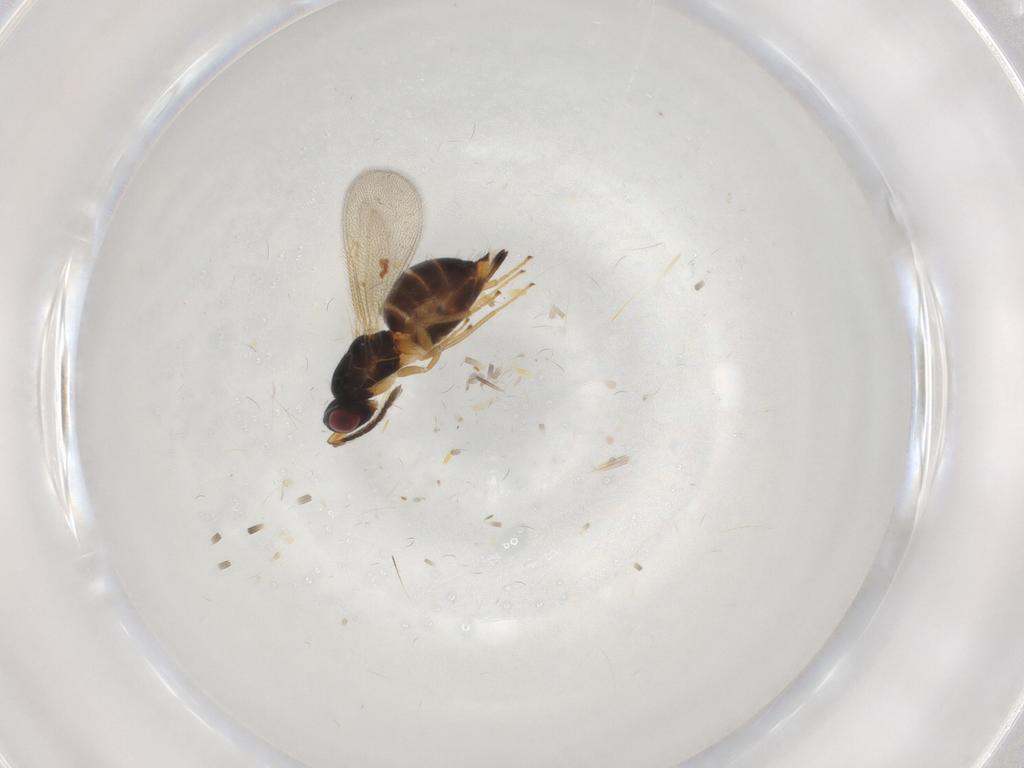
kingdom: Animalia
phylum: Arthropoda
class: Insecta
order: Hymenoptera
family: Eulophidae
